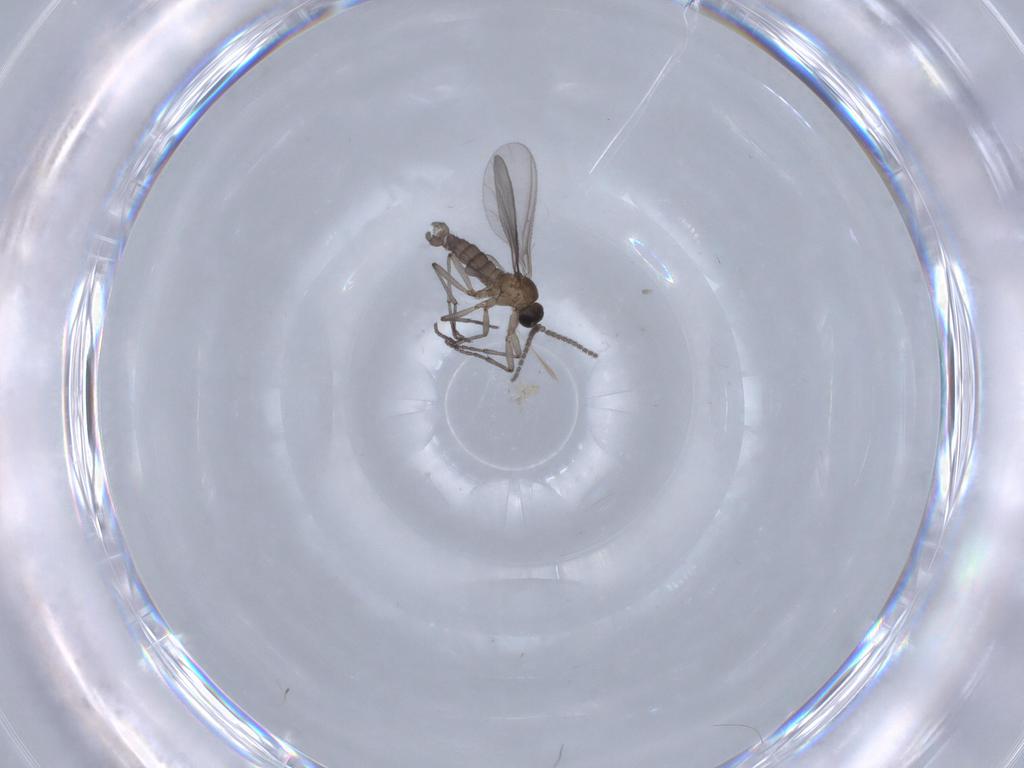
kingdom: Animalia
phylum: Arthropoda
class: Insecta
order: Diptera
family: Sciaridae
